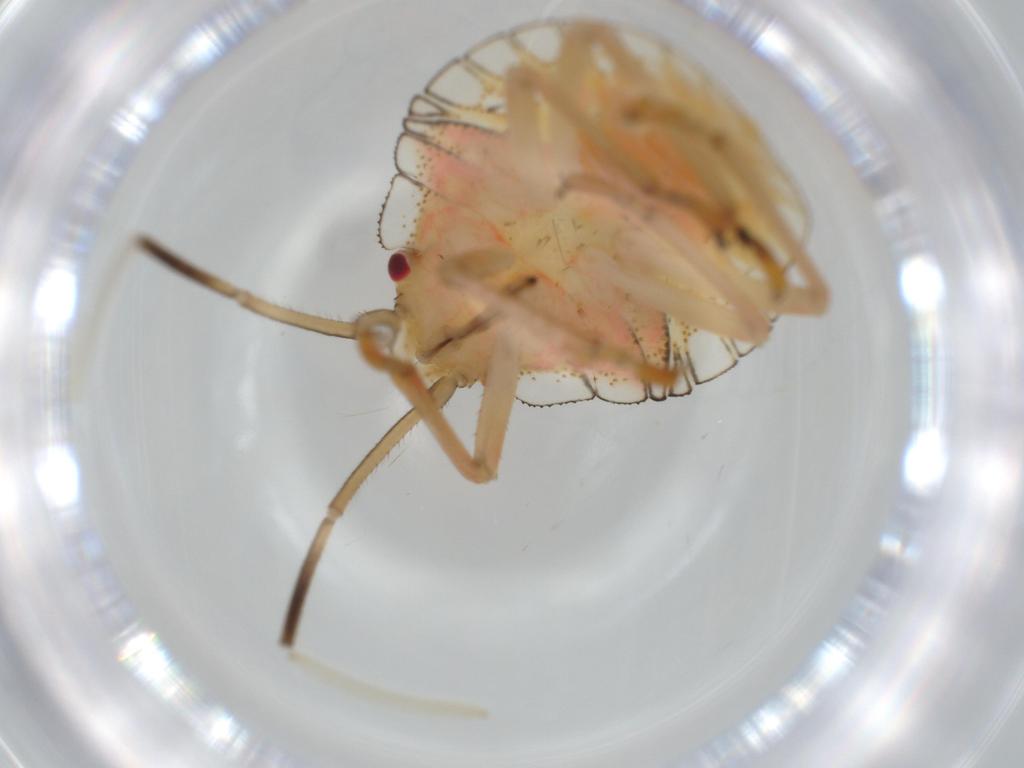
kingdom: Animalia
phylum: Arthropoda
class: Insecta
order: Hemiptera
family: Pentatomidae
